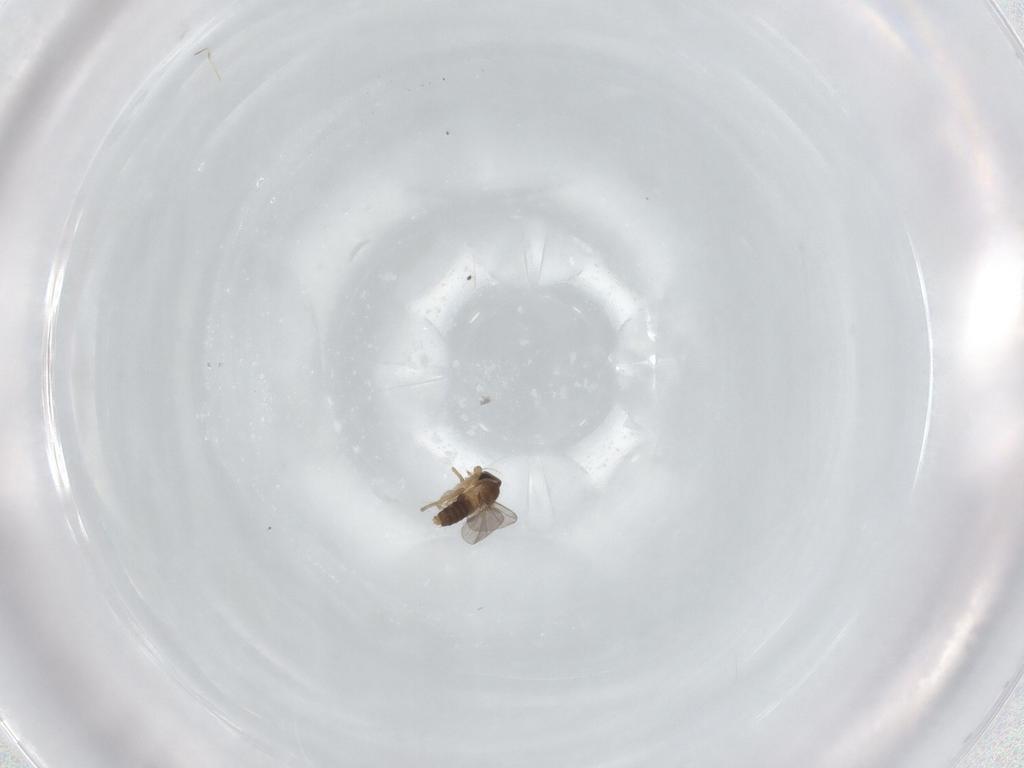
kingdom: Animalia
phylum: Arthropoda
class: Insecta
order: Diptera
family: Phoridae
